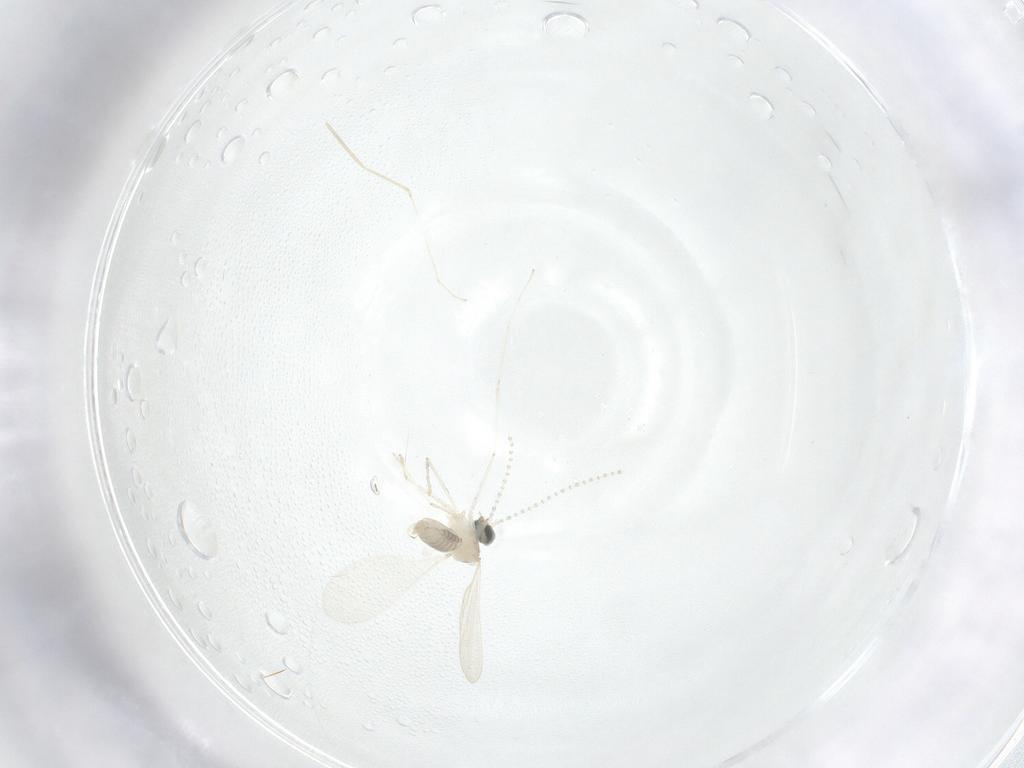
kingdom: Animalia
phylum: Arthropoda
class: Insecta
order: Diptera
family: Cecidomyiidae
